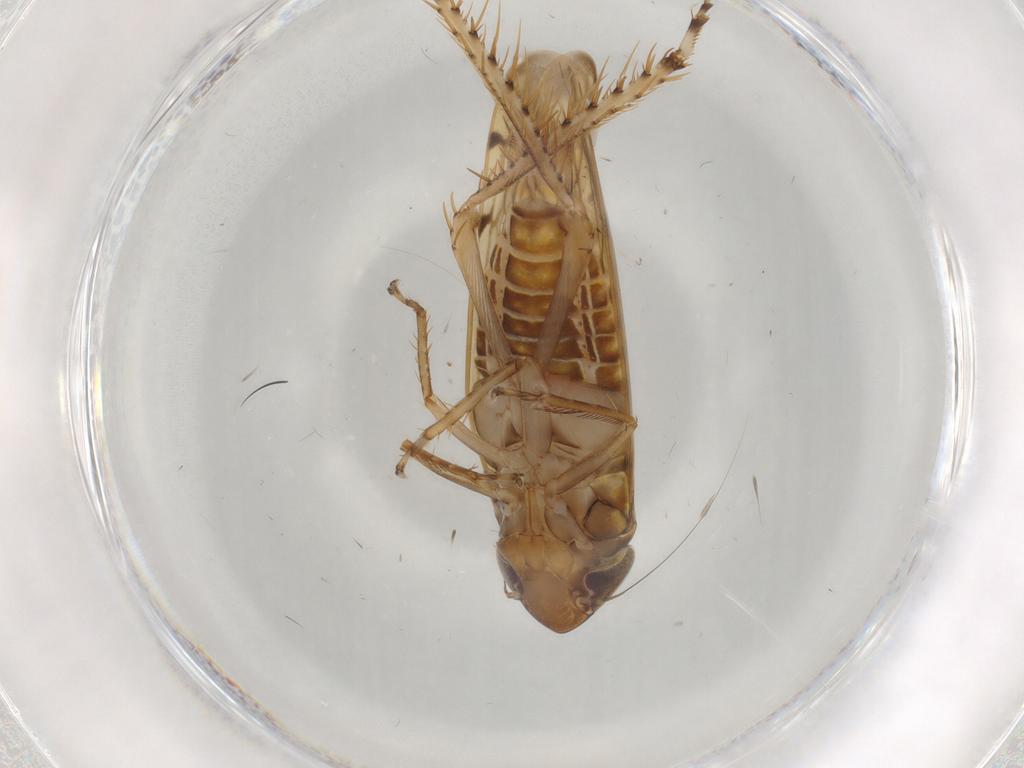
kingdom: Animalia
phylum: Arthropoda
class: Insecta
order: Hemiptera
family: Cicadellidae
